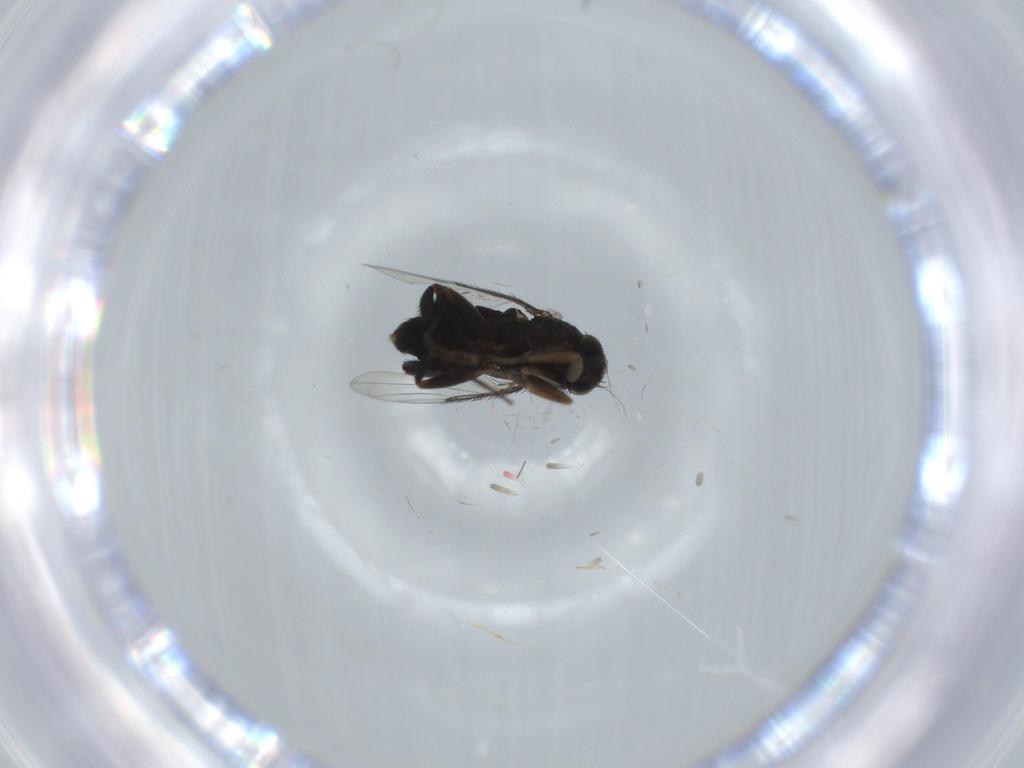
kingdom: Animalia
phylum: Arthropoda
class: Insecta
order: Diptera
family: Phoridae
